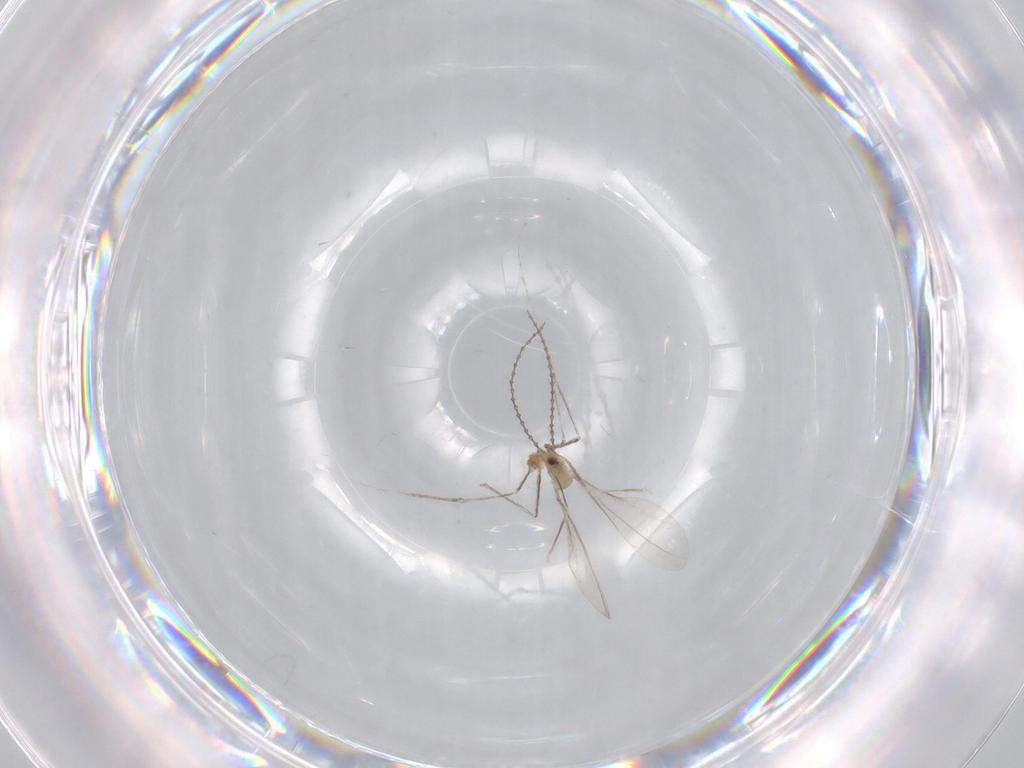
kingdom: Animalia
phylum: Arthropoda
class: Insecta
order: Diptera
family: Cecidomyiidae
